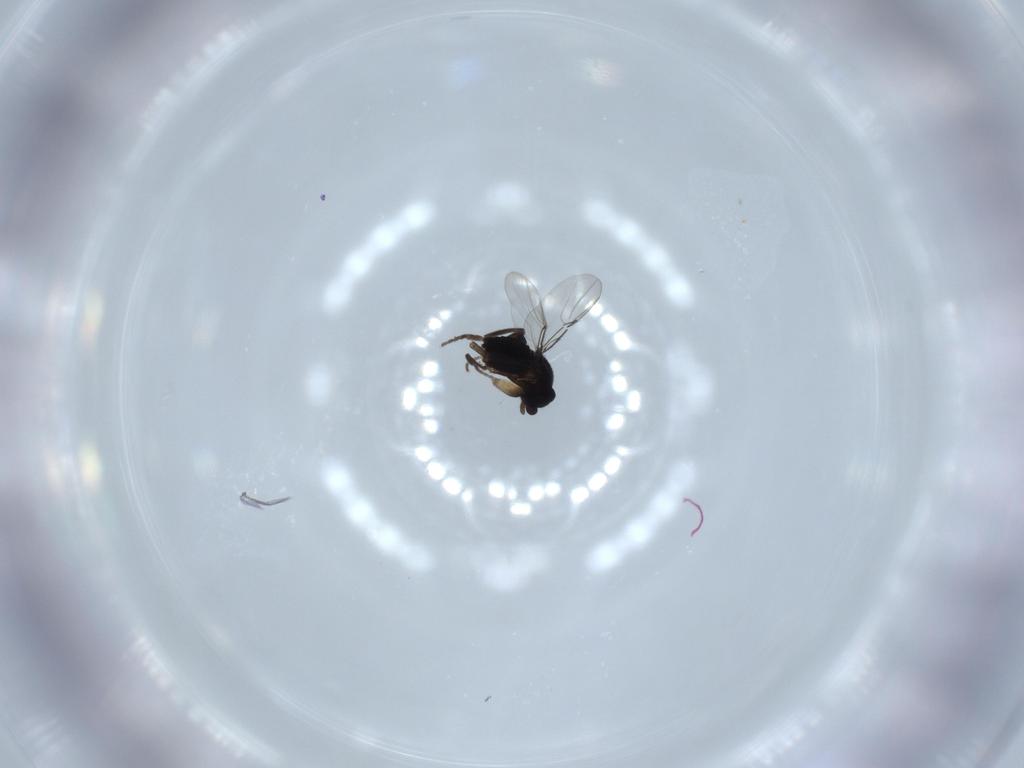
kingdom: Animalia
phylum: Arthropoda
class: Insecta
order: Diptera
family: Phoridae
